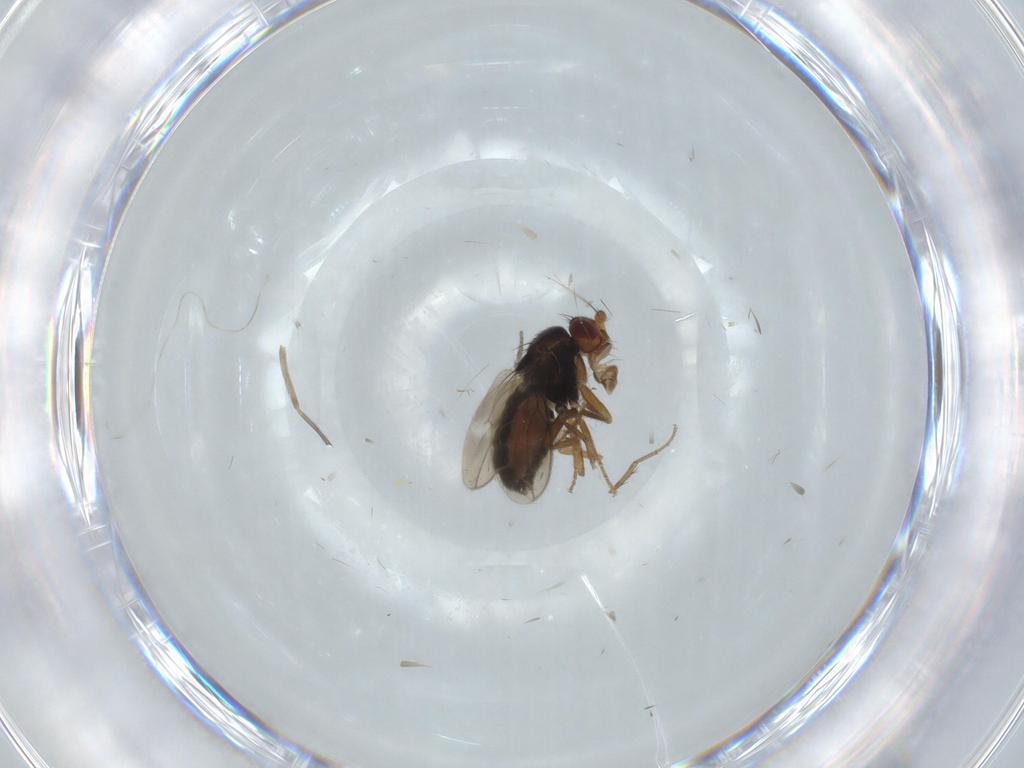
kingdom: Animalia
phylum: Arthropoda
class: Insecta
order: Diptera
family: Sphaeroceridae
